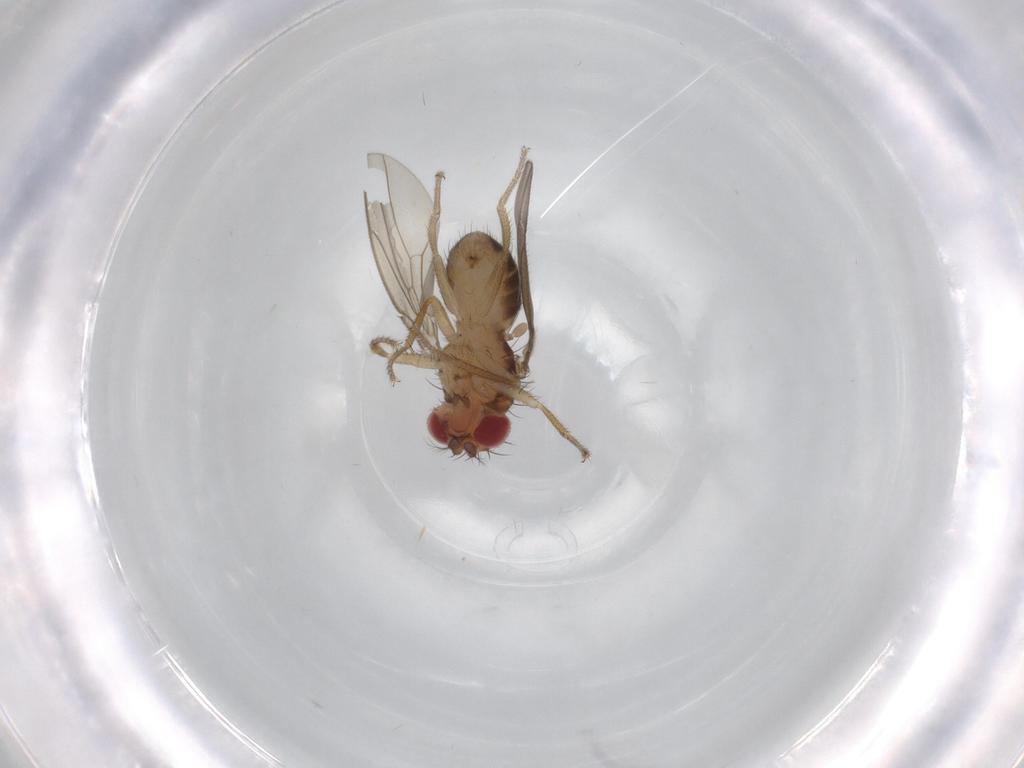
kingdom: Animalia
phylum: Arthropoda
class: Insecta
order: Diptera
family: Drosophilidae
